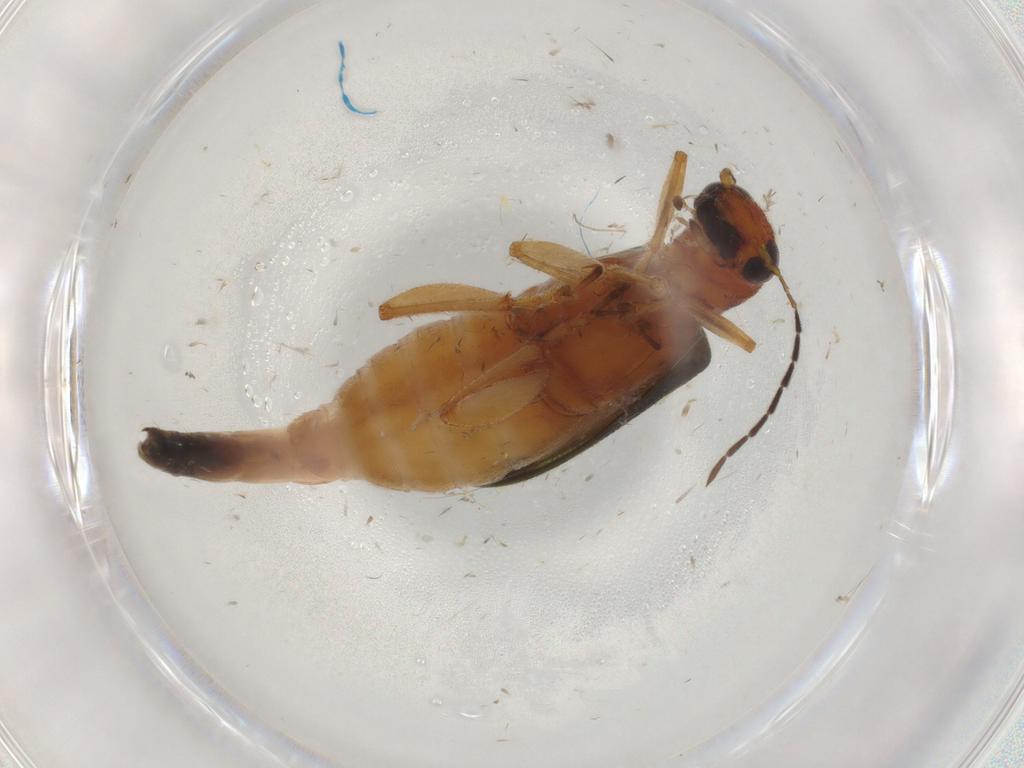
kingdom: Animalia
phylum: Arthropoda
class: Insecta
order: Coleoptera
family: Chrysomelidae
